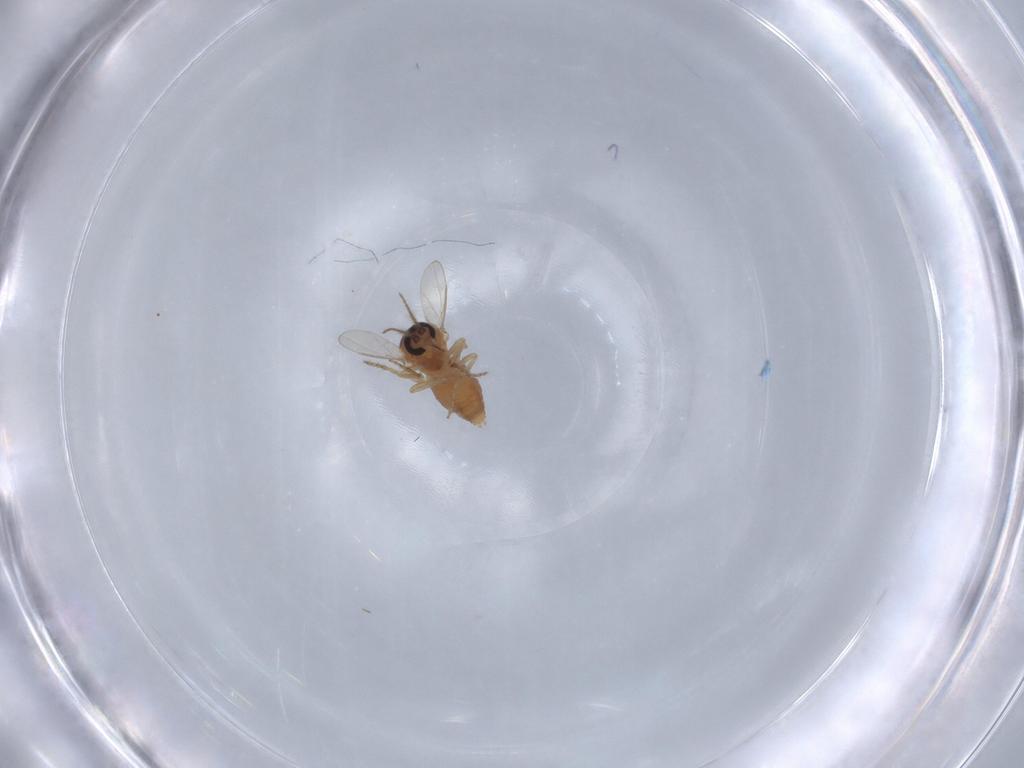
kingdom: Animalia
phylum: Arthropoda
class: Insecta
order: Diptera
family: Ceratopogonidae
